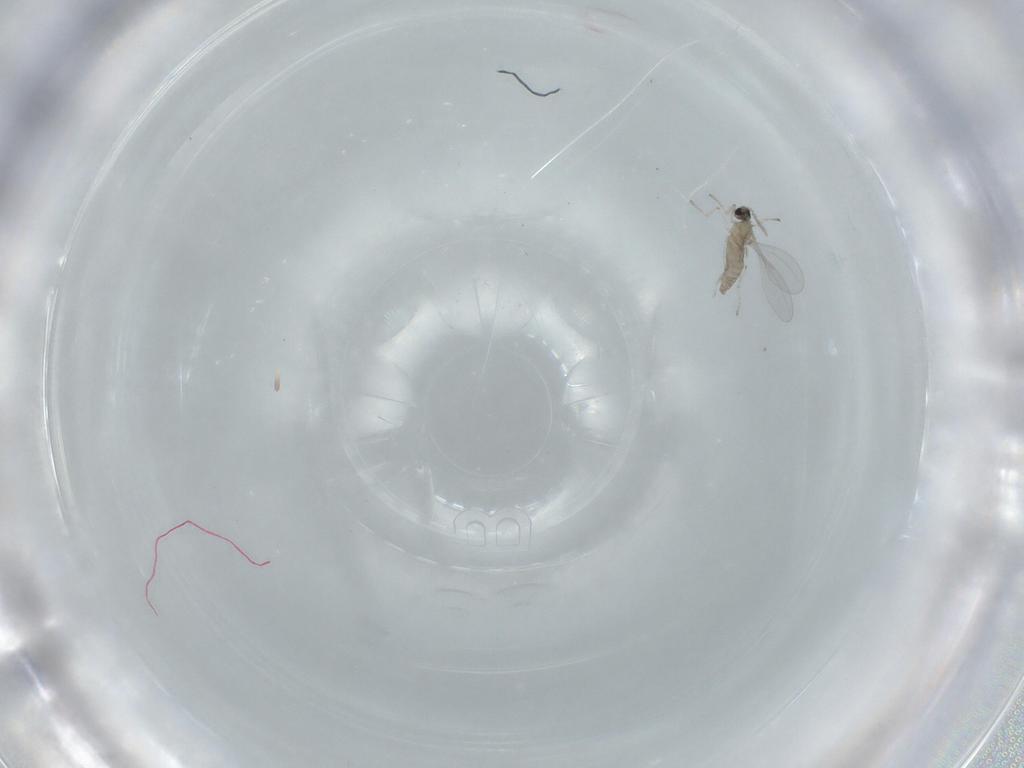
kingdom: Animalia
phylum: Arthropoda
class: Insecta
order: Diptera
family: Cecidomyiidae
